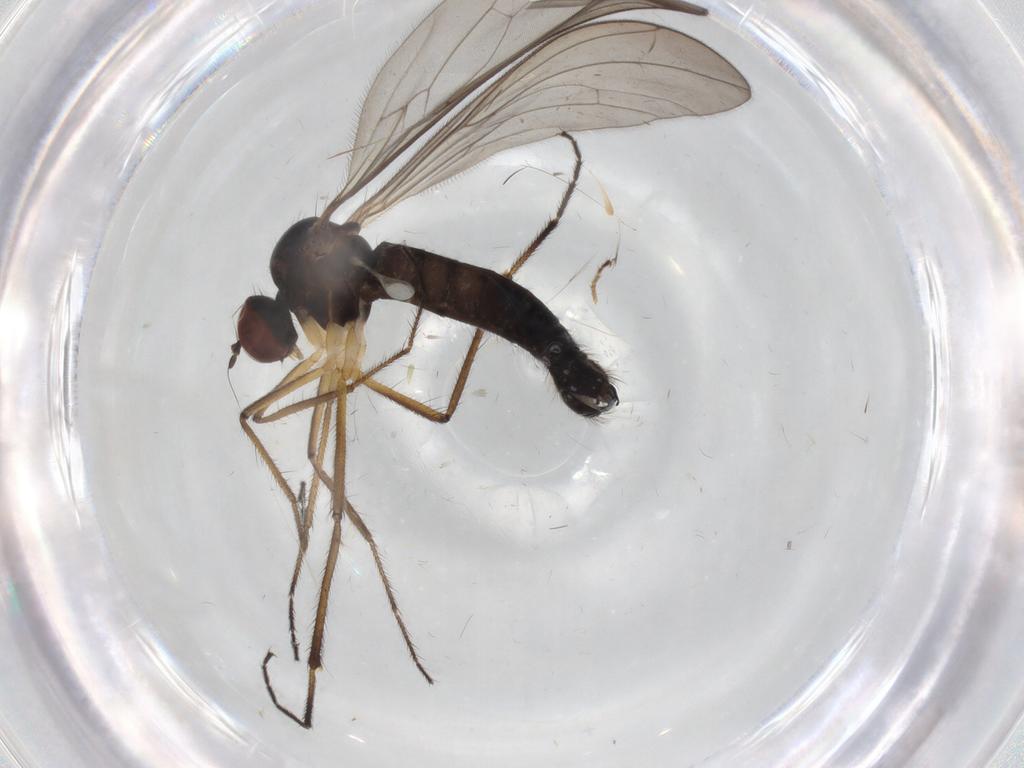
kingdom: Animalia
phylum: Arthropoda
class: Insecta
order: Diptera
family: Hybotidae
